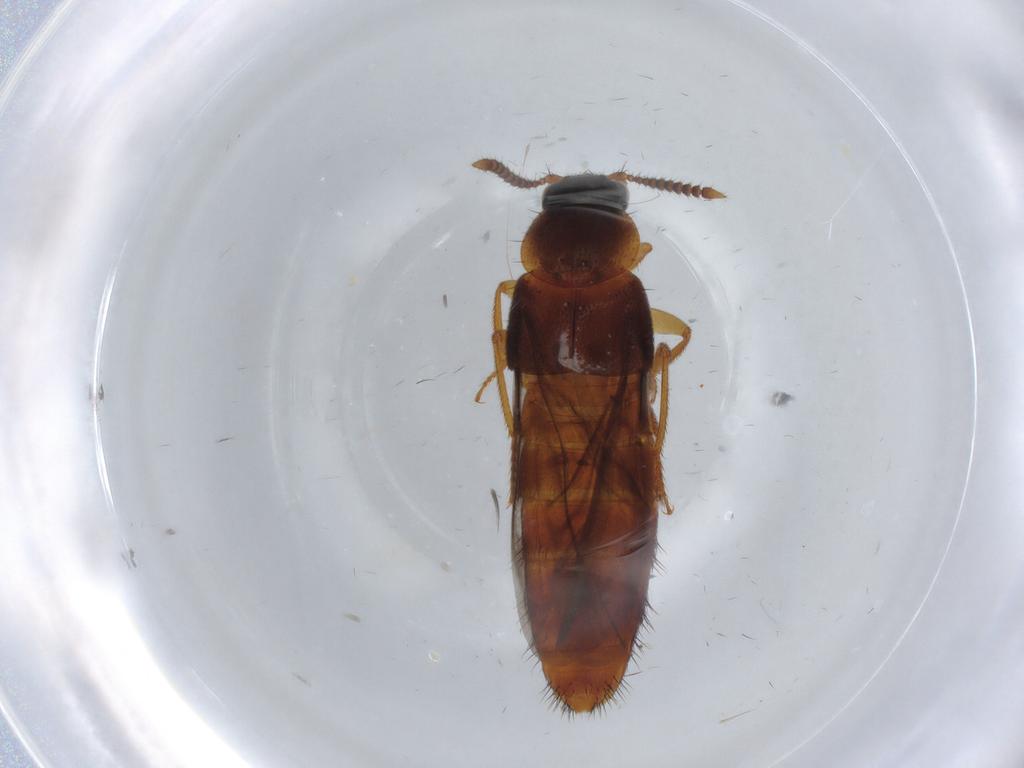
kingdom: Animalia
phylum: Arthropoda
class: Insecta
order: Coleoptera
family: Staphylinidae
